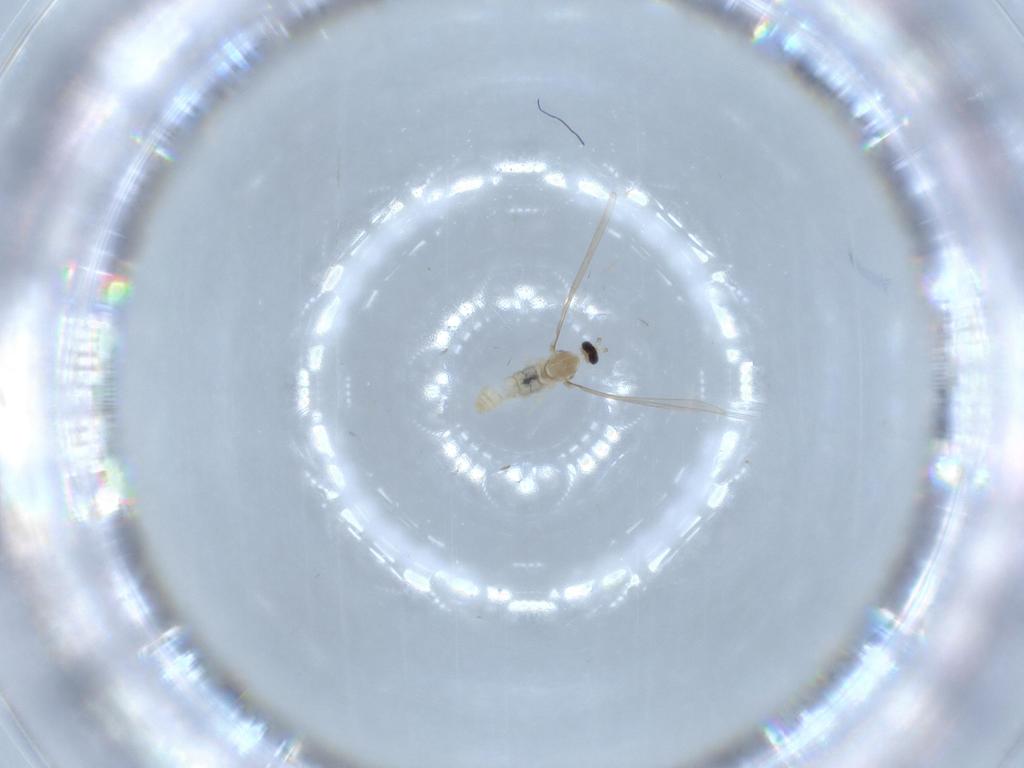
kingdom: Animalia
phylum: Arthropoda
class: Insecta
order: Diptera
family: Cecidomyiidae
